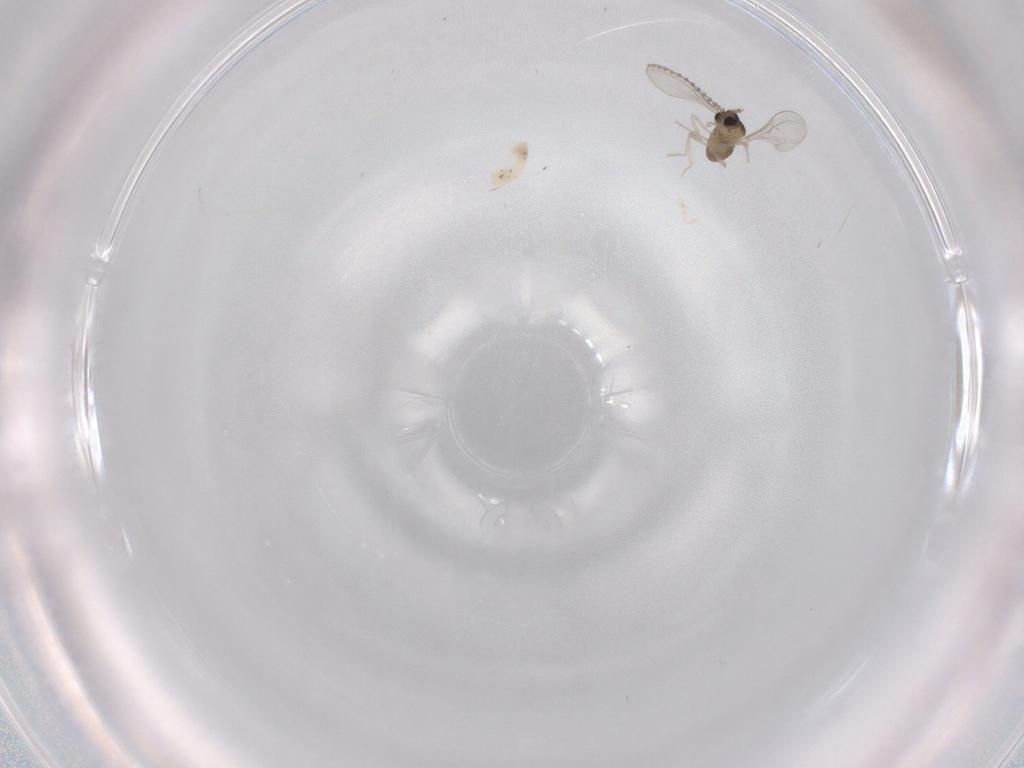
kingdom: Animalia
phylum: Arthropoda
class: Insecta
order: Diptera
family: Cecidomyiidae
